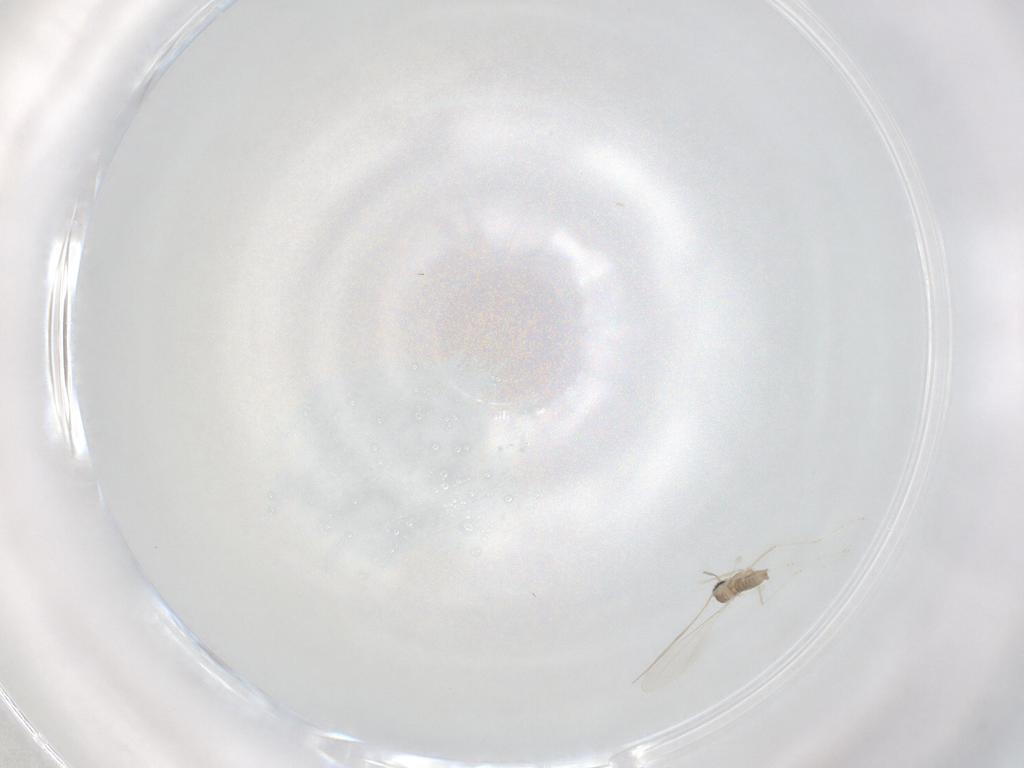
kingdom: Animalia
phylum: Arthropoda
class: Insecta
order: Diptera
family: Cecidomyiidae
